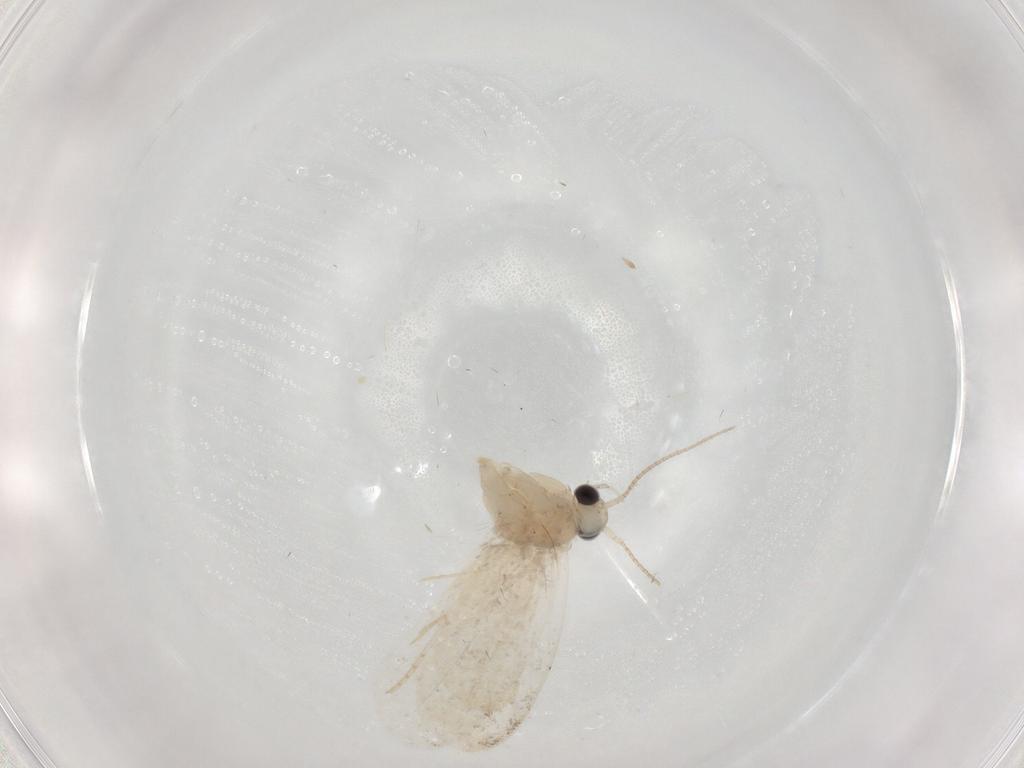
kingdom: Animalia
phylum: Arthropoda
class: Insecta
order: Lepidoptera
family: Psychidae
